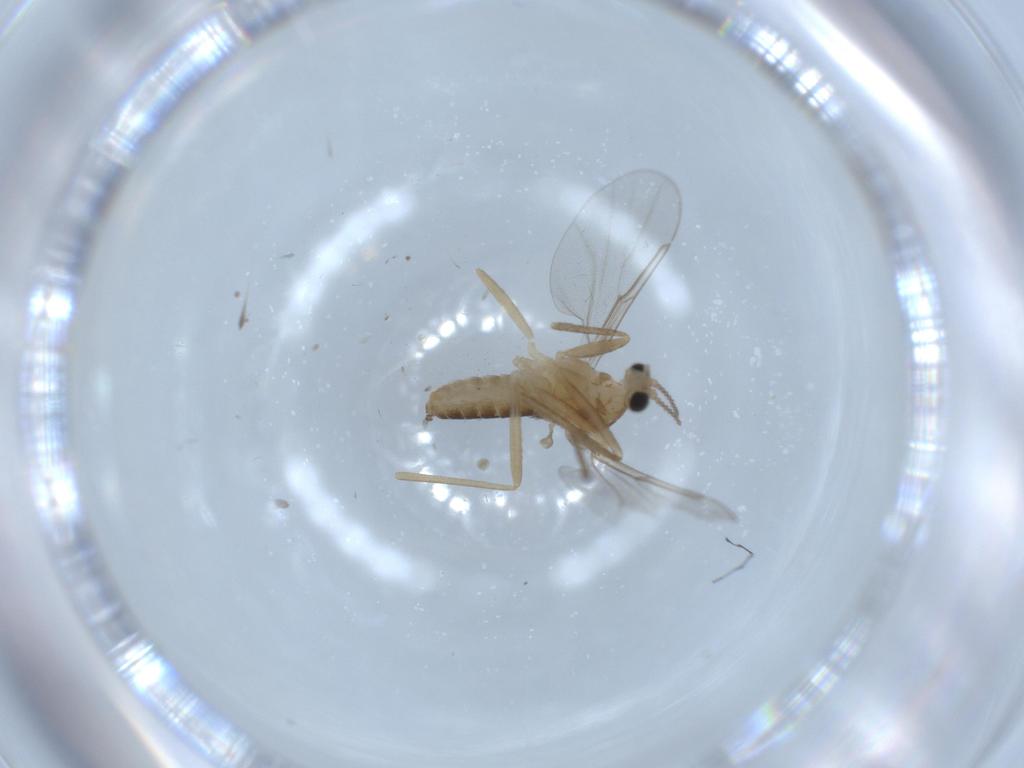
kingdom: Animalia
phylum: Arthropoda
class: Insecta
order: Diptera
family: Cecidomyiidae
